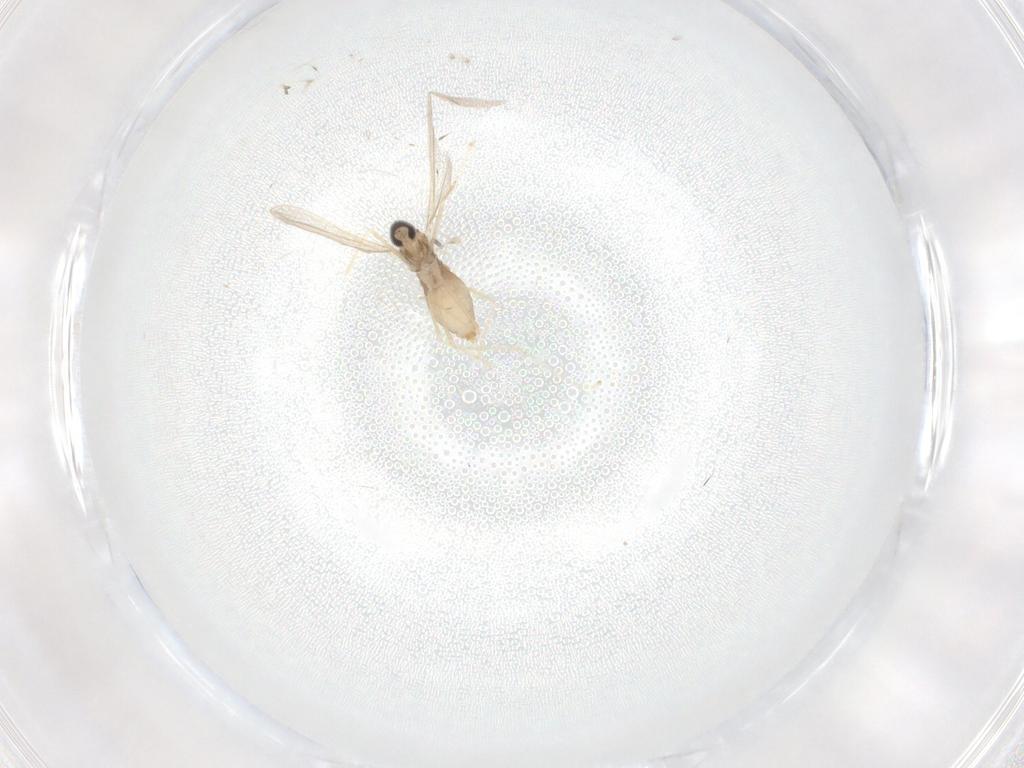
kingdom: Animalia
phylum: Arthropoda
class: Insecta
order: Diptera
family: Cecidomyiidae
